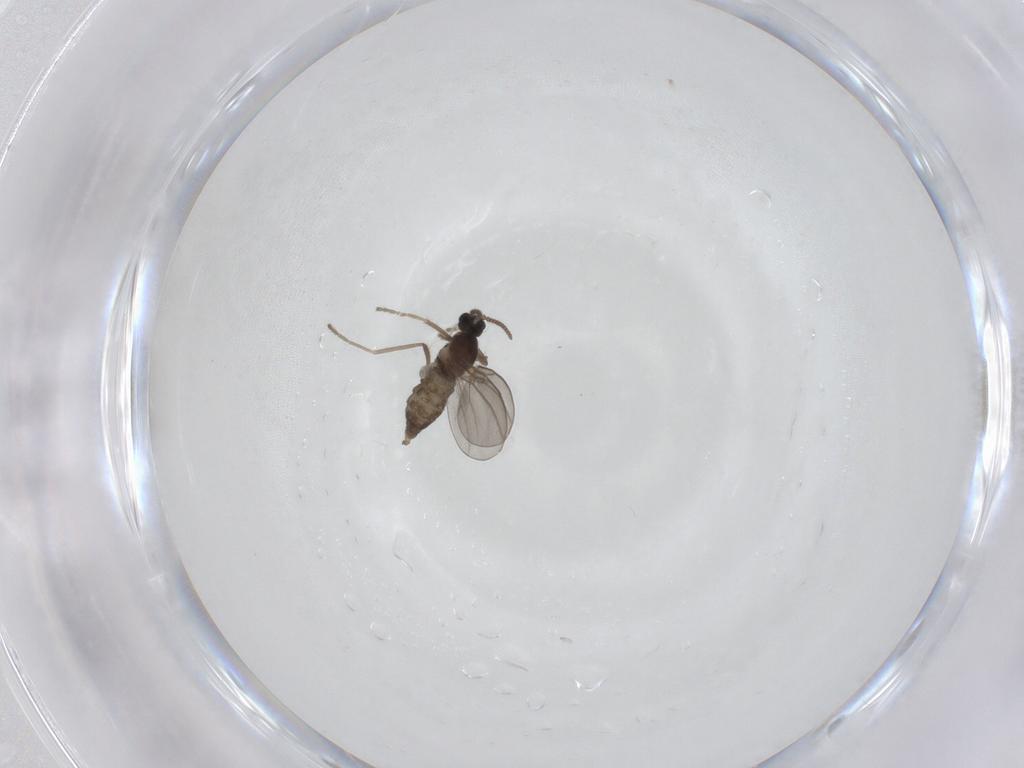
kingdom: Animalia
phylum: Arthropoda
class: Insecta
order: Diptera
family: Cecidomyiidae
